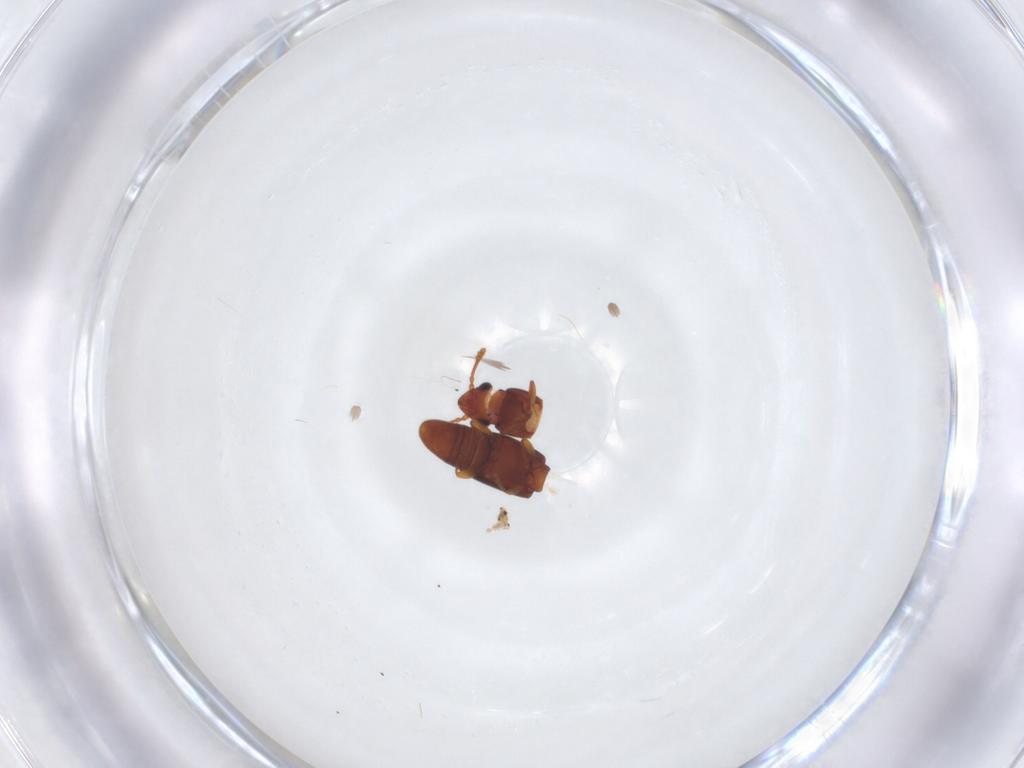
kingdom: Animalia
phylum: Arthropoda
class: Insecta
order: Coleoptera
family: Smicripidae
